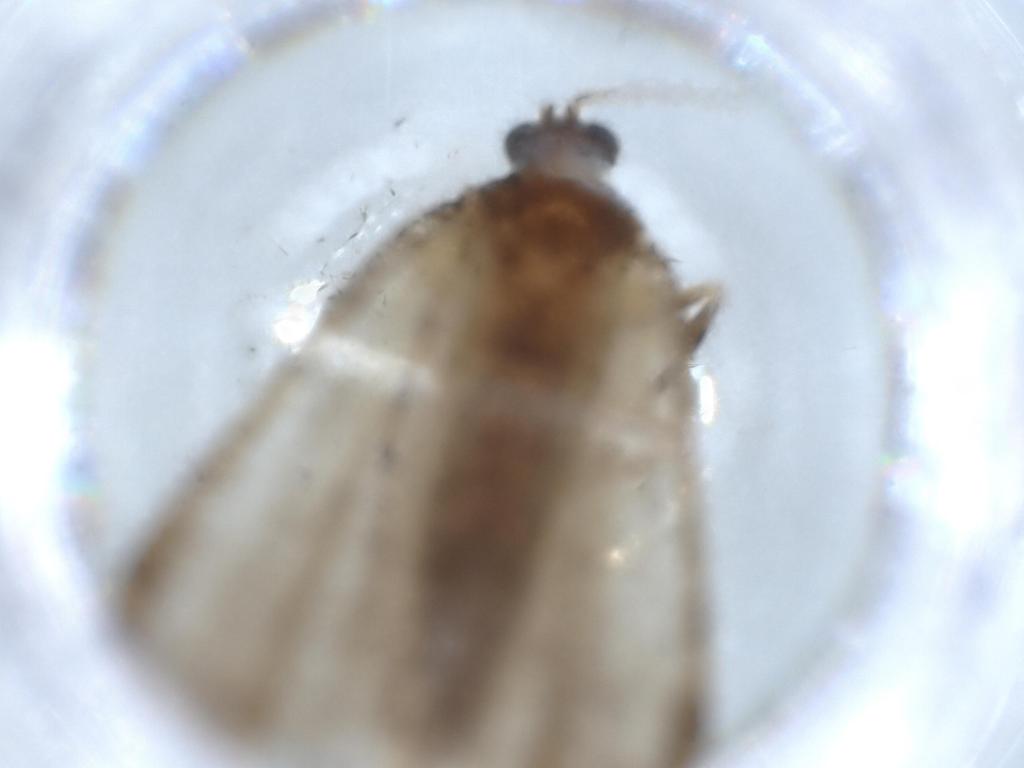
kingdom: Animalia
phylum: Arthropoda
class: Insecta
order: Lepidoptera
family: Crambidae
